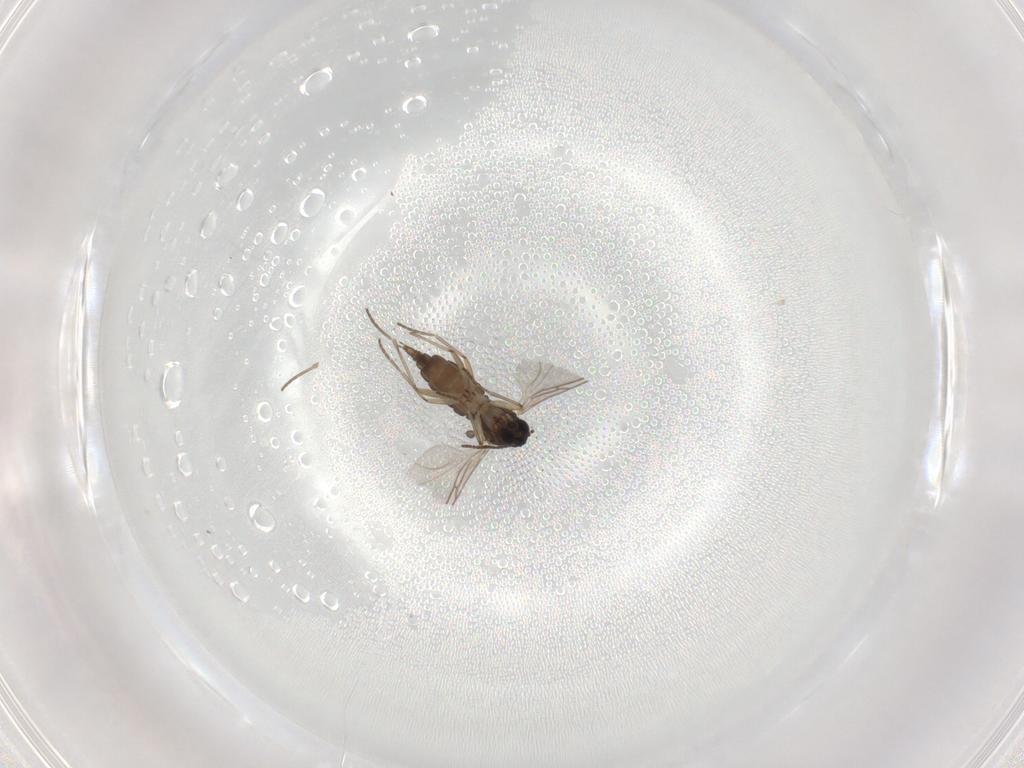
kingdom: Animalia
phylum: Arthropoda
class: Insecta
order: Diptera
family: Sciaridae
